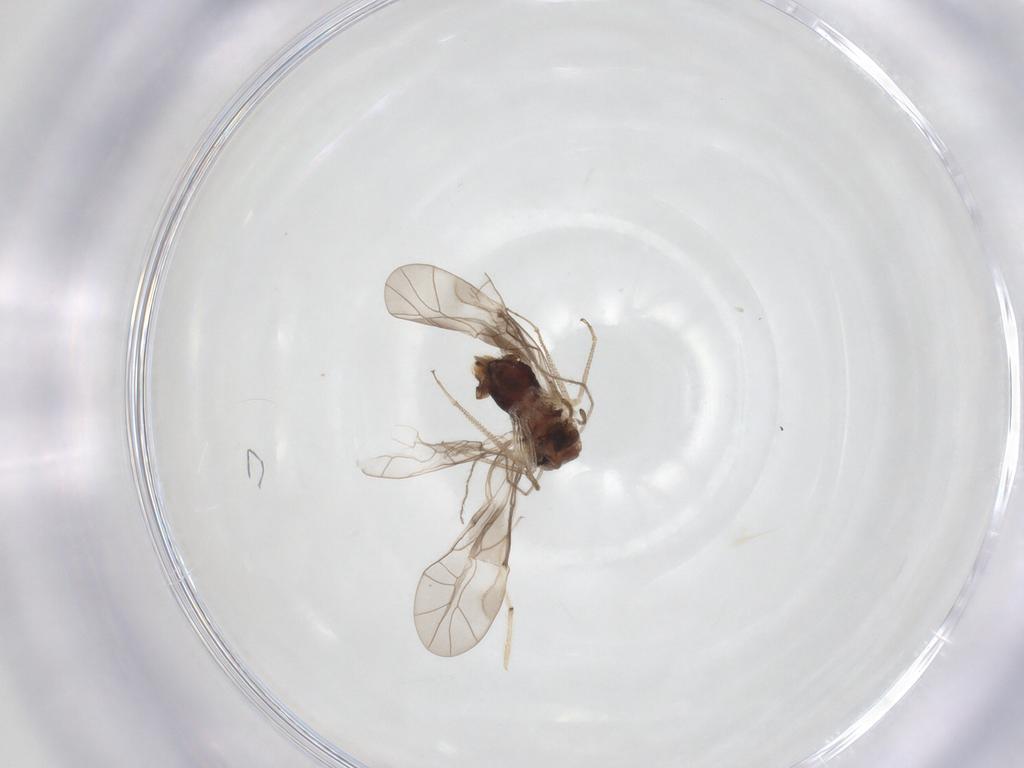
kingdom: Animalia
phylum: Arthropoda
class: Insecta
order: Psocodea
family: Peripsocidae
